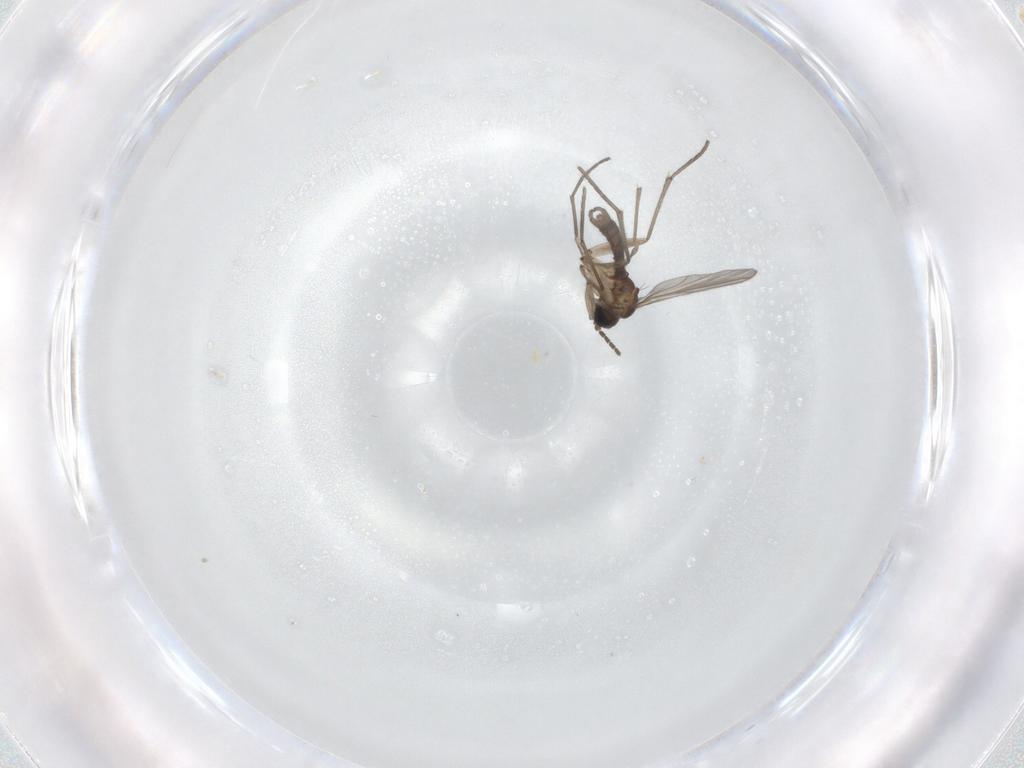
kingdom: Animalia
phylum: Arthropoda
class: Insecta
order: Diptera
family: Sciaridae
